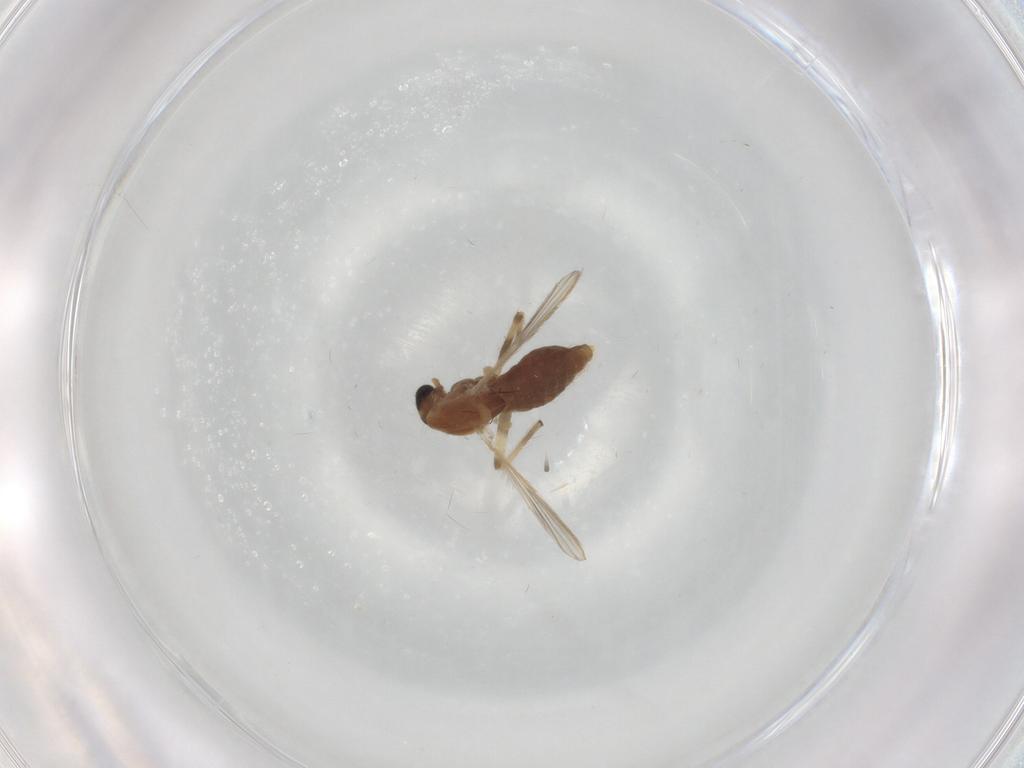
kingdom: Animalia
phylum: Arthropoda
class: Insecta
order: Diptera
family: Chironomidae
